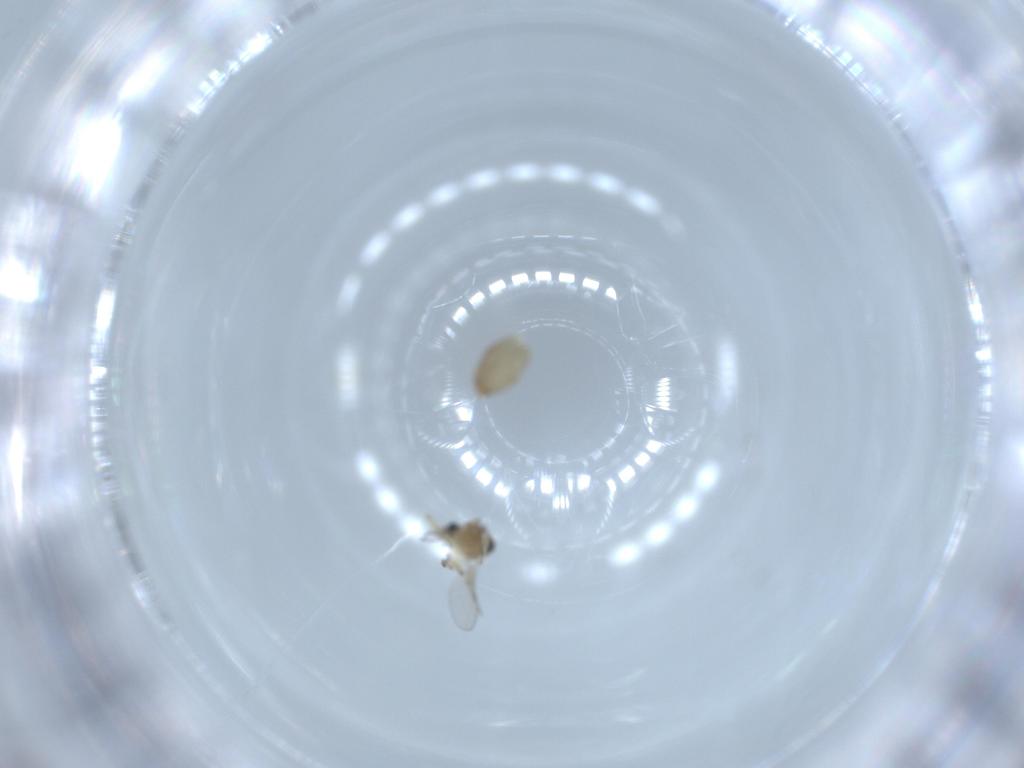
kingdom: Animalia
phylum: Arthropoda
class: Insecta
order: Diptera
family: Ceratopogonidae
